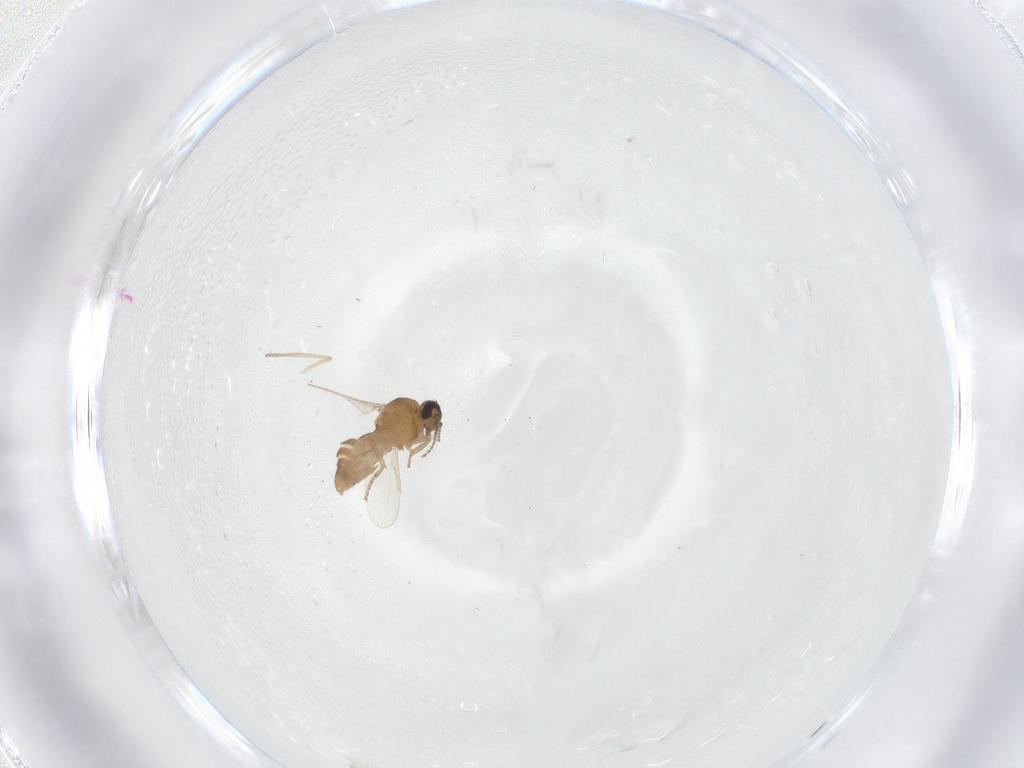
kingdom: Animalia
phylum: Arthropoda
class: Insecta
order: Diptera
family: Ceratopogonidae
